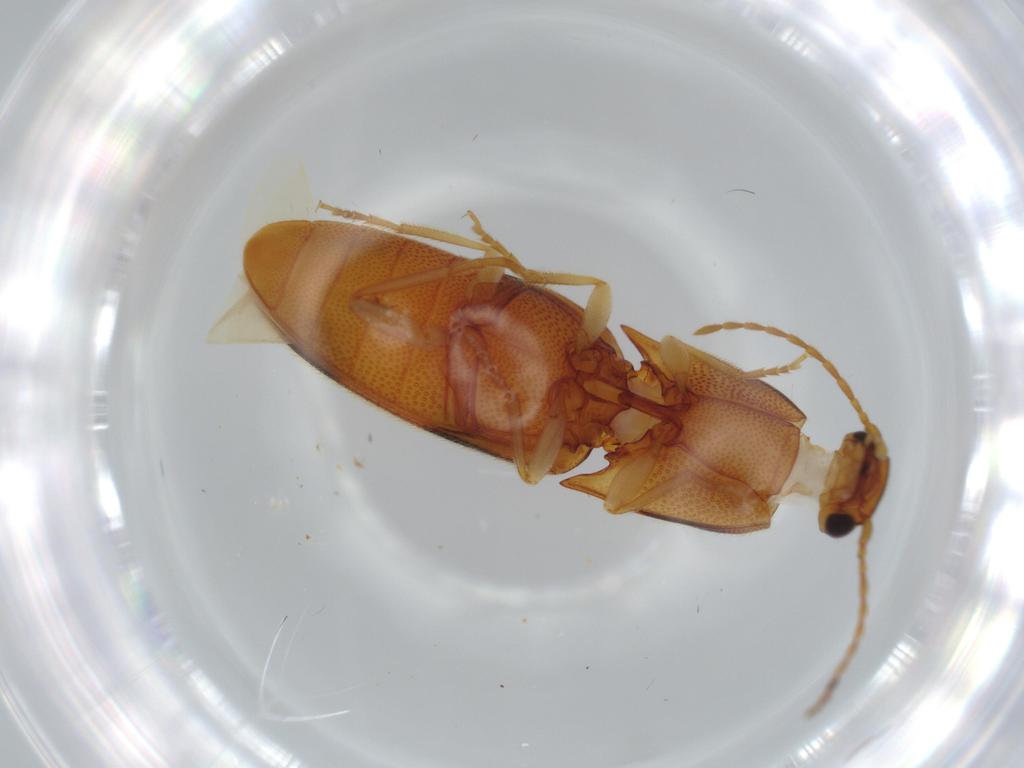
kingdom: Animalia
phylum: Arthropoda
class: Insecta
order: Coleoptera
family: Elateridae
